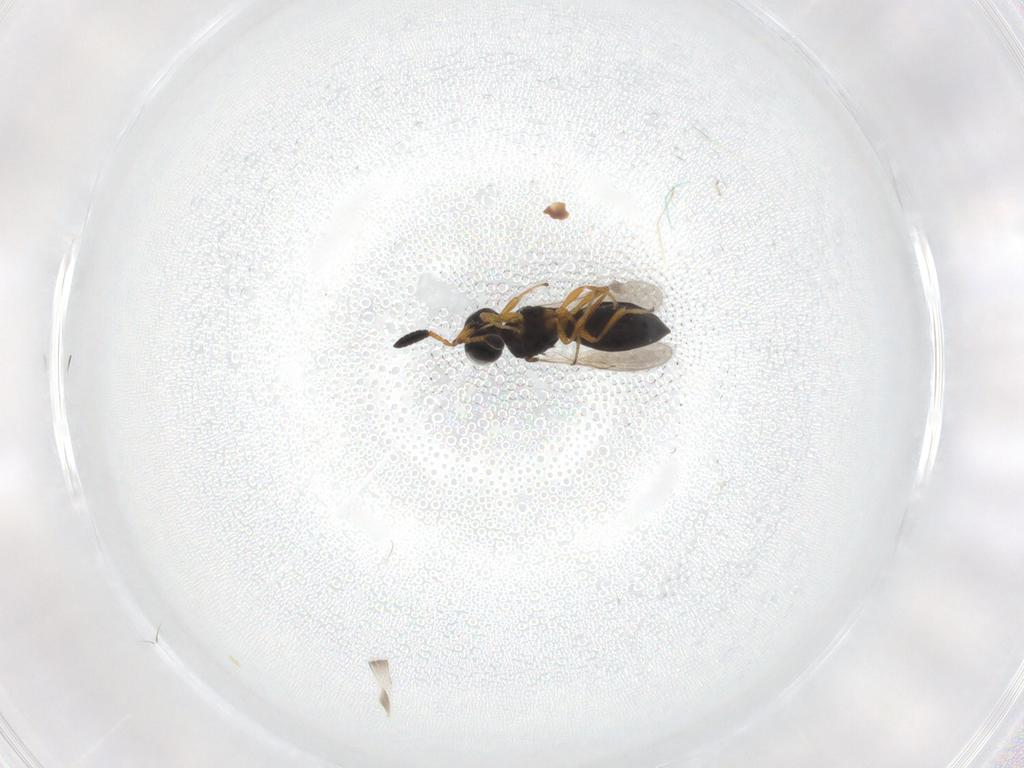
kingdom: Animalia
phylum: Arthropoda
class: Insecta
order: Hymenoptera
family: Scelionidae
